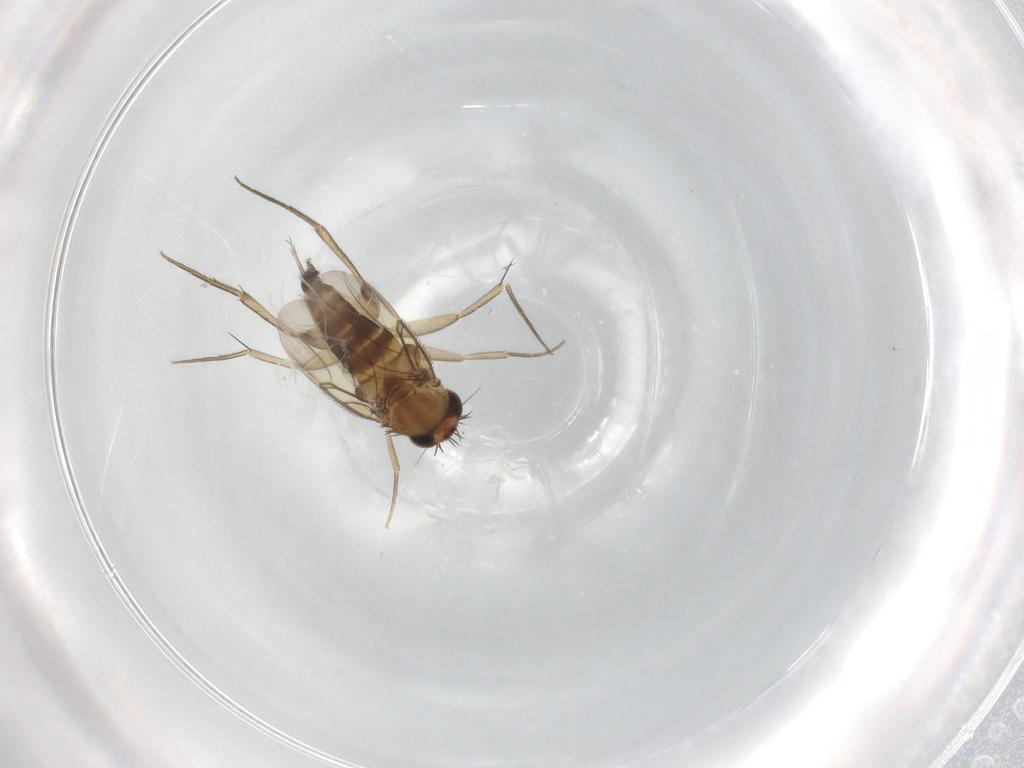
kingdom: Animalia
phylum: Arthropoda
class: Insecta
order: Diptera
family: Phoridae
